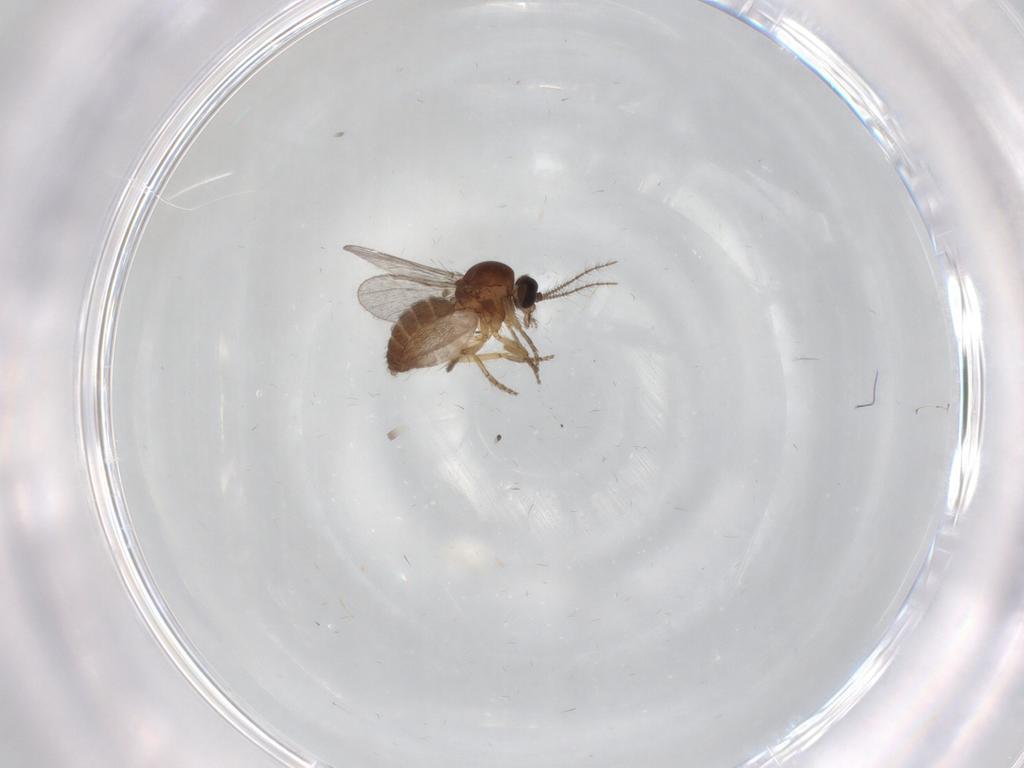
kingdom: Animalia
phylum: Arthropoda
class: Insecta
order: Diptera
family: Ceratopogonidae
